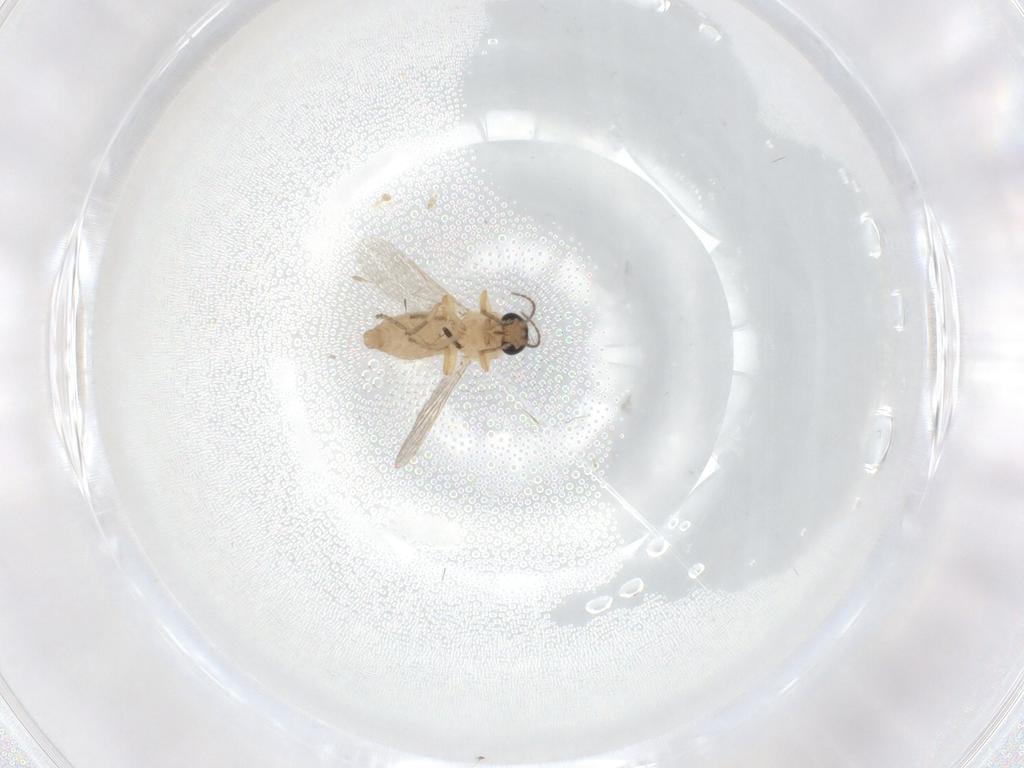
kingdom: Animalia
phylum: Arthropoda
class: Insecta
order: Diptera
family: Ceratopogonidae
